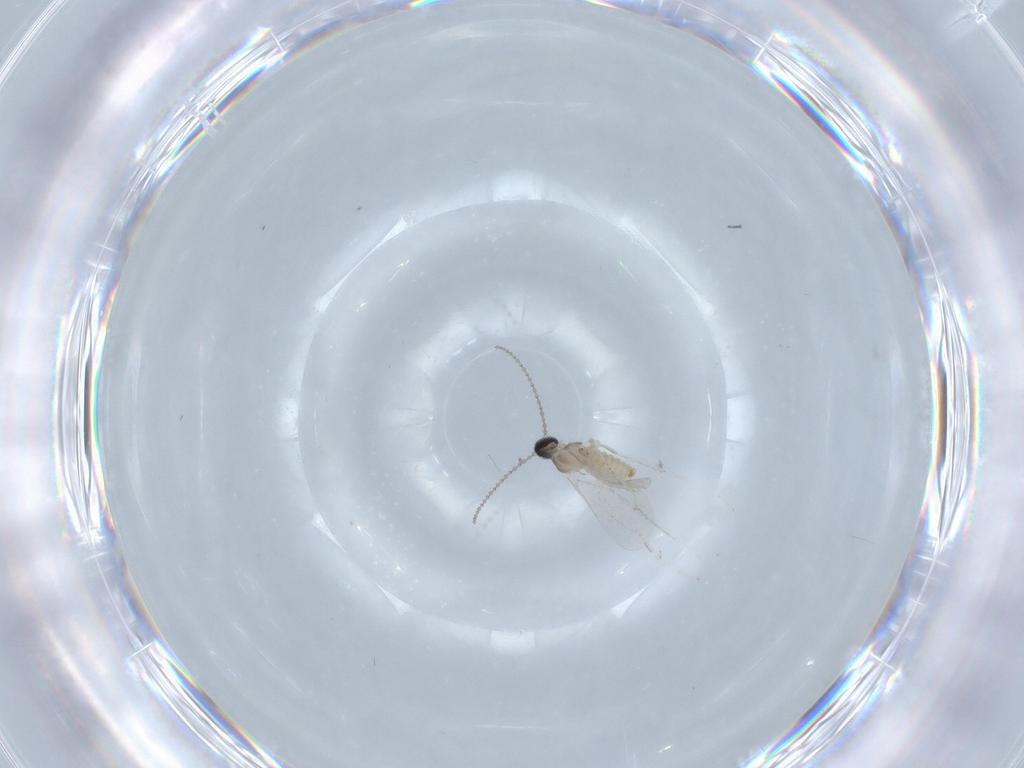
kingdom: Animalia
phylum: Arthropoda
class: Insecta
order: Diptera
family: Cecidomyiidae
